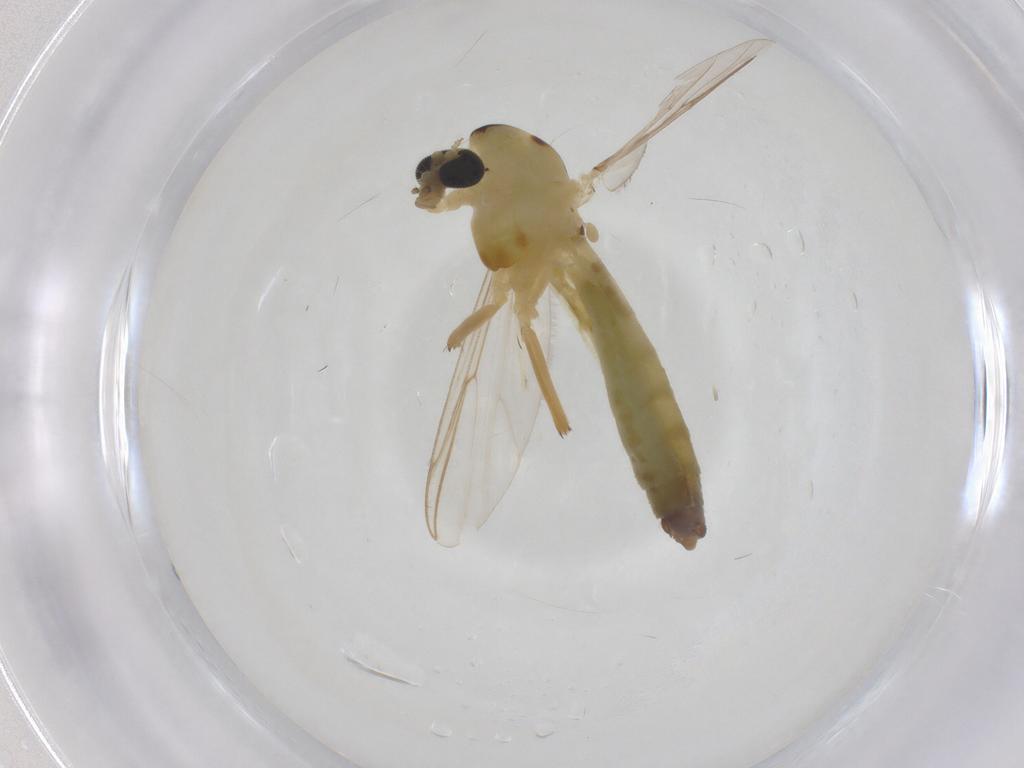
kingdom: Animalia
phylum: Arthropoda
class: Insecta
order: Diptera
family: Chironomidae
